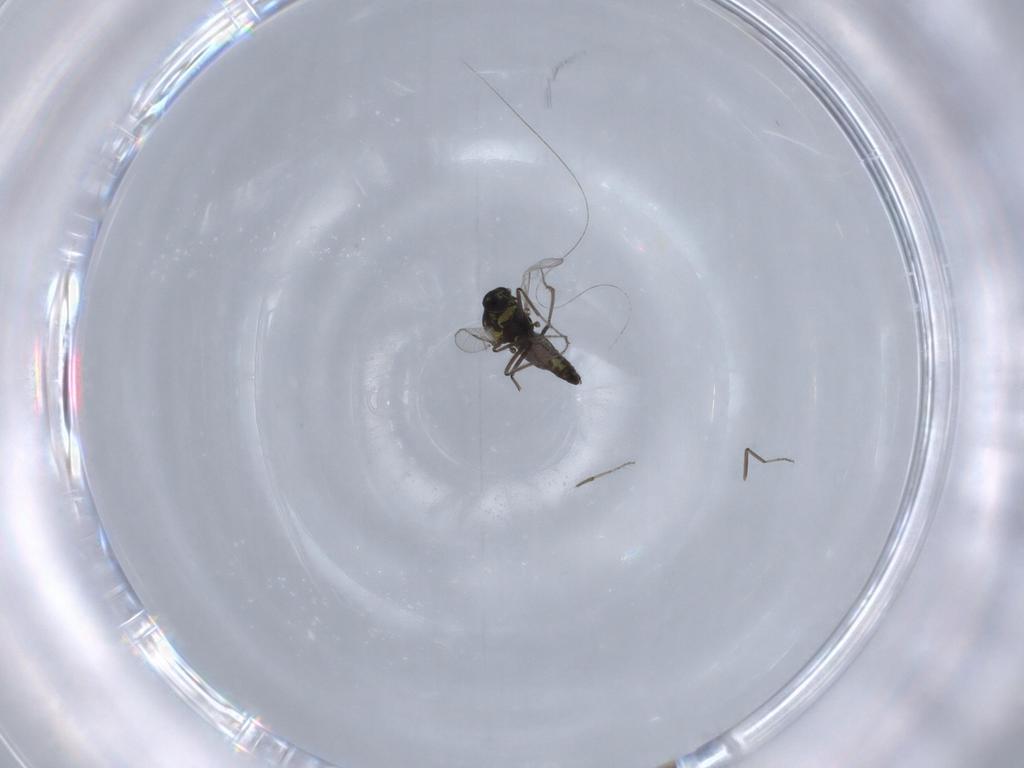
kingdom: Animalia
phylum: Arthropoda
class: Insecta
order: Diptera
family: Ceratopogonidae
